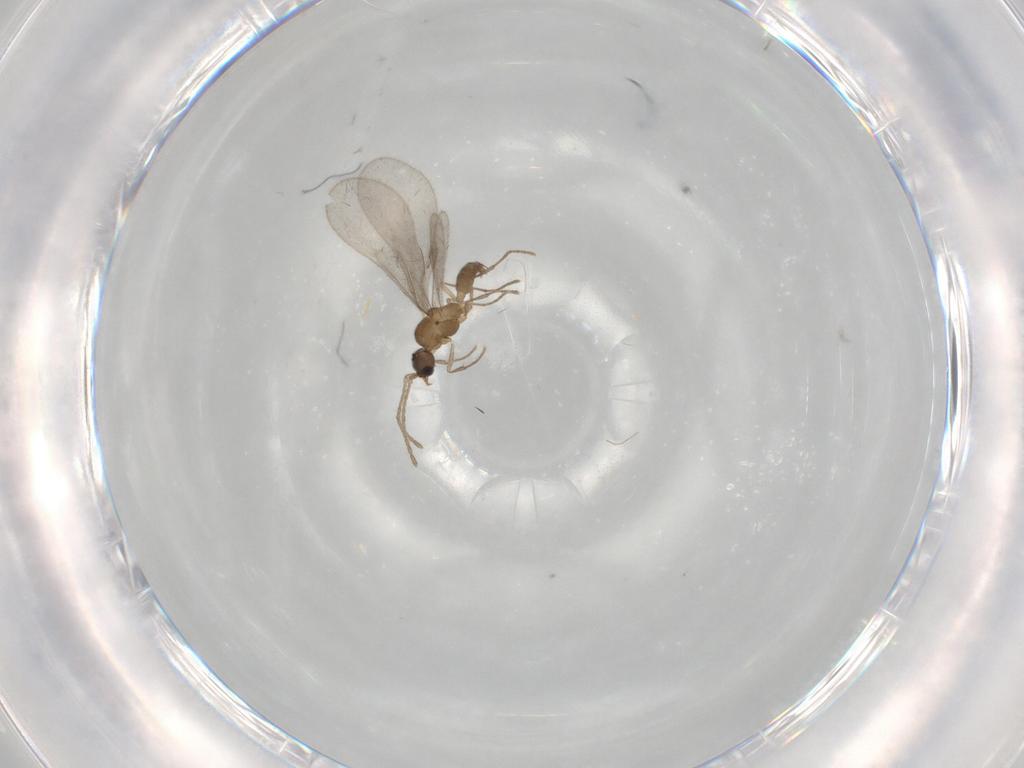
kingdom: Animalia
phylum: Arthropoda
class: Insecta
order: Hymenoptera
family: Formicidae
